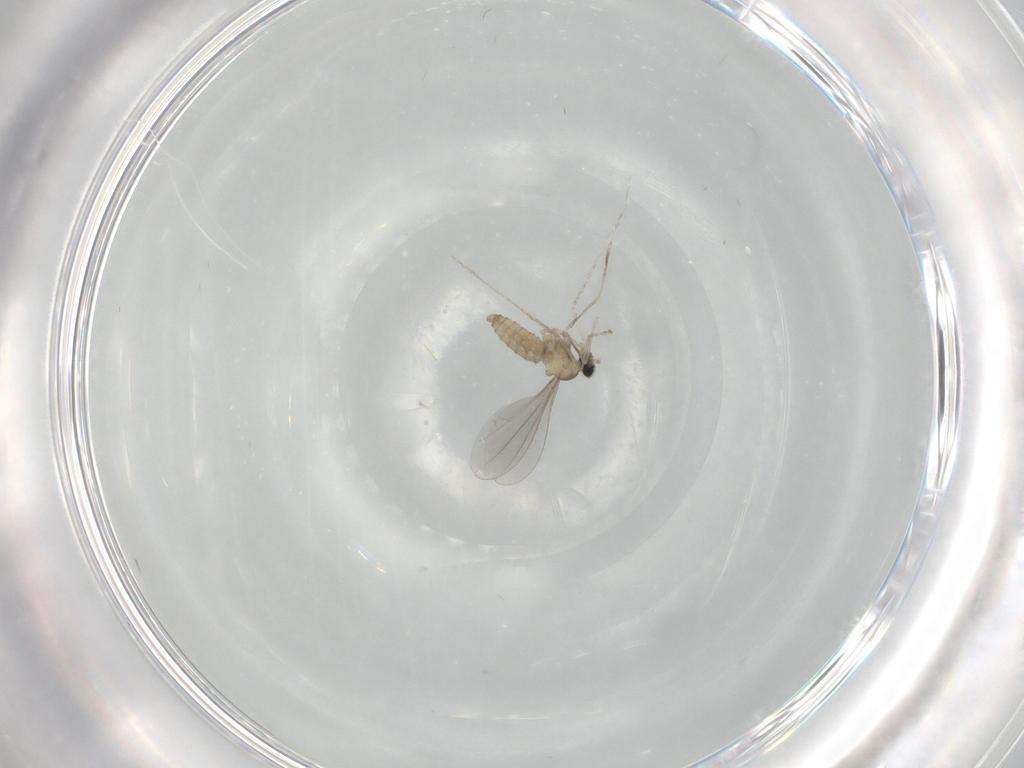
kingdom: Animalia
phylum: Arthropoda
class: Insecta
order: Diptera
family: Cecidomyiidae
